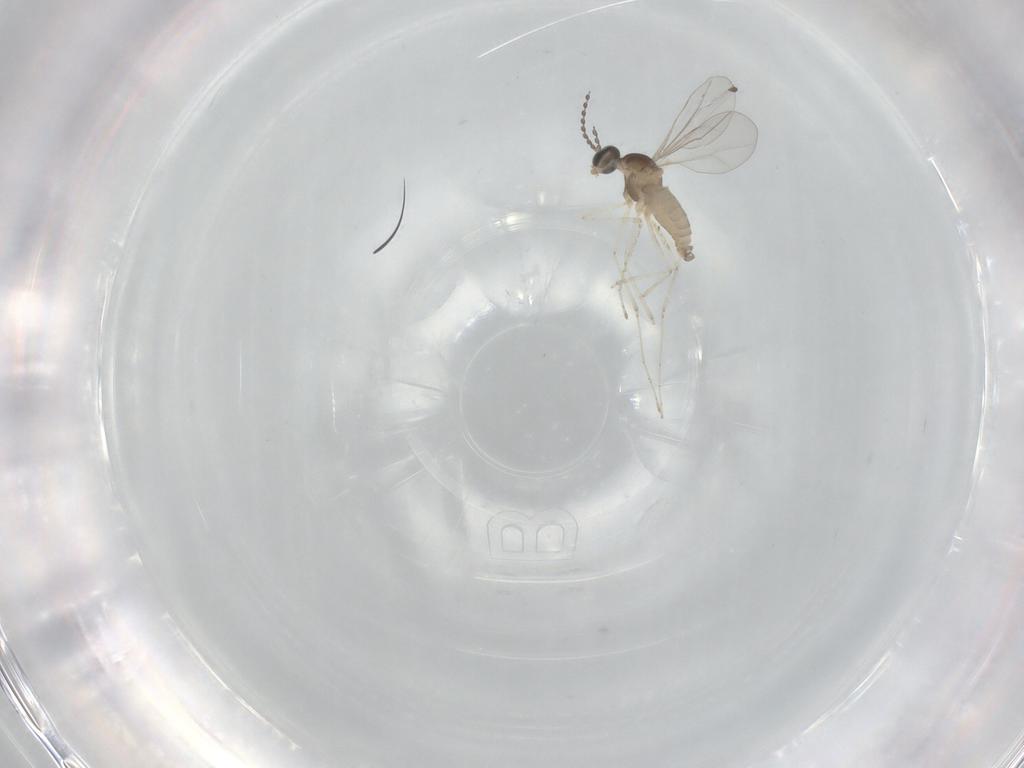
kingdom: Animalia
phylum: Arthropoda
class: Insecta
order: Diptera
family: Cecidomyiidae
